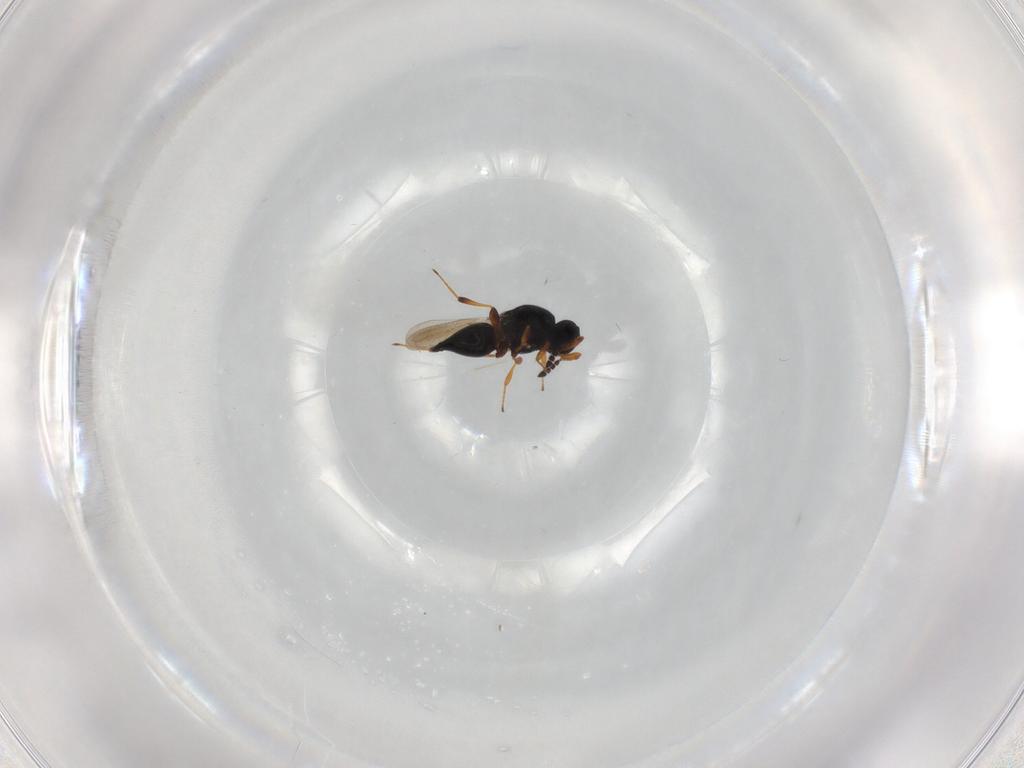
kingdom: Animalia
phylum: Arthropoda
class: Insecta
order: Hymenoptera
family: Platygastridae
